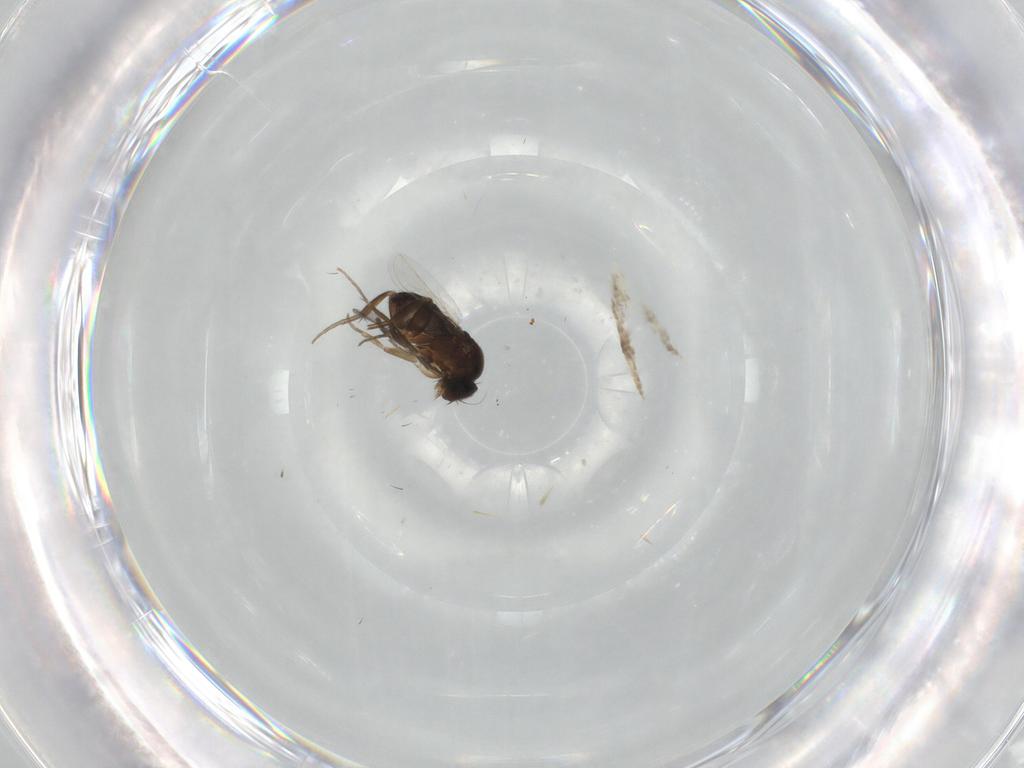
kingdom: Animalia
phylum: Arthropoda
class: Insecta
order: Diptera
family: Phoridae
